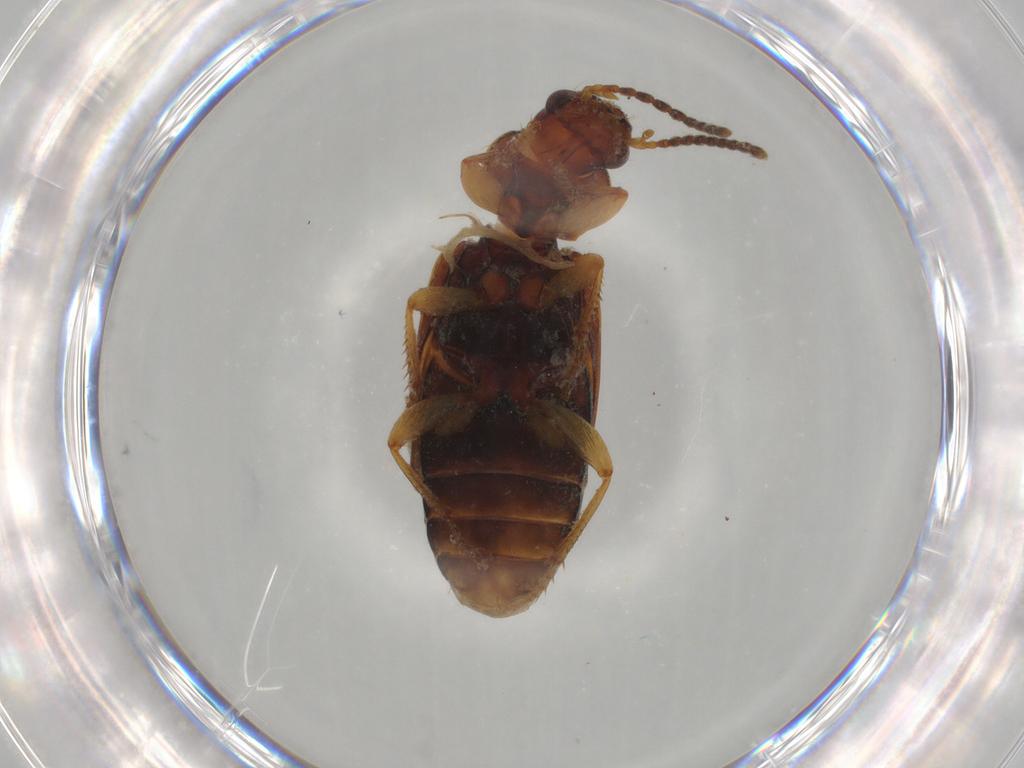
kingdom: Animalia
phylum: Arthropoda
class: Insecta
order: Coleoptera
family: Carabidae
